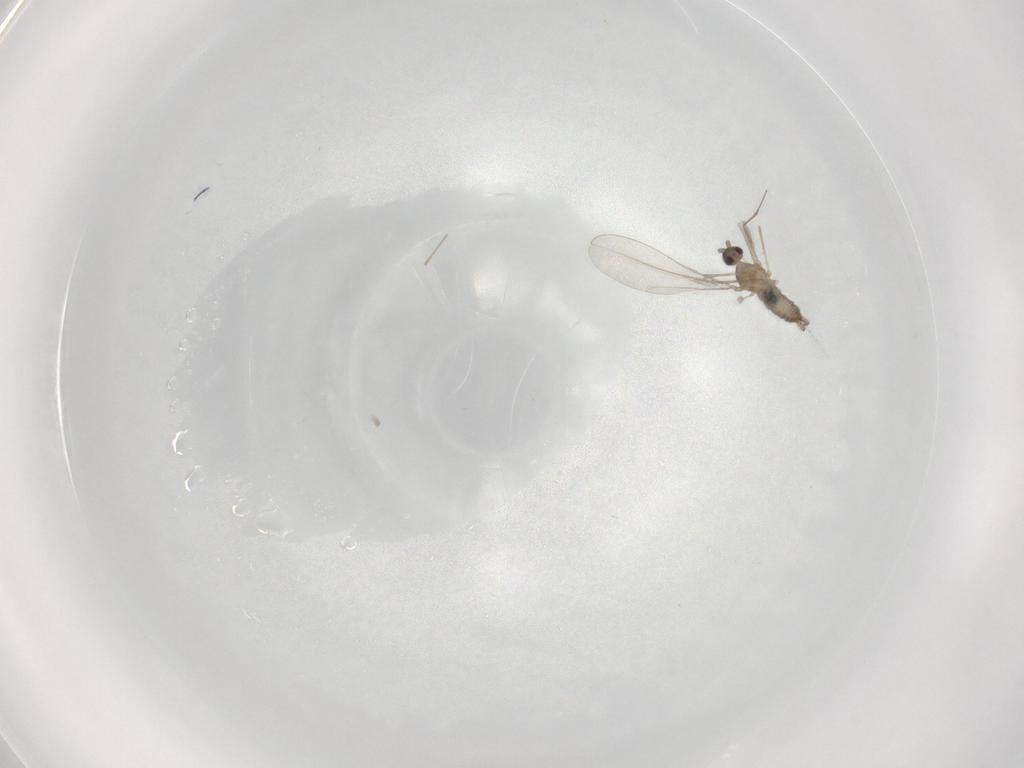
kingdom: Animalia
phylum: Arthropoda
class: Insecta
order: Diptera
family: Cecidomyiidae
